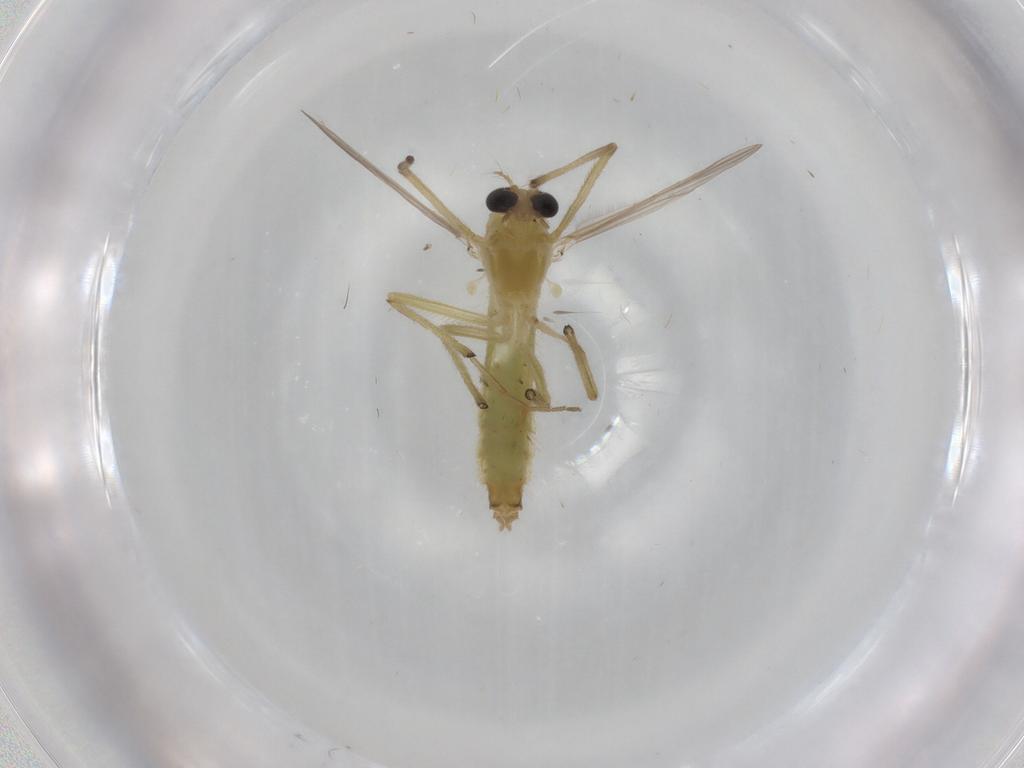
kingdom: Animalia
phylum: Arthropoda
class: Insecta
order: Diptera
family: Chironomidae
